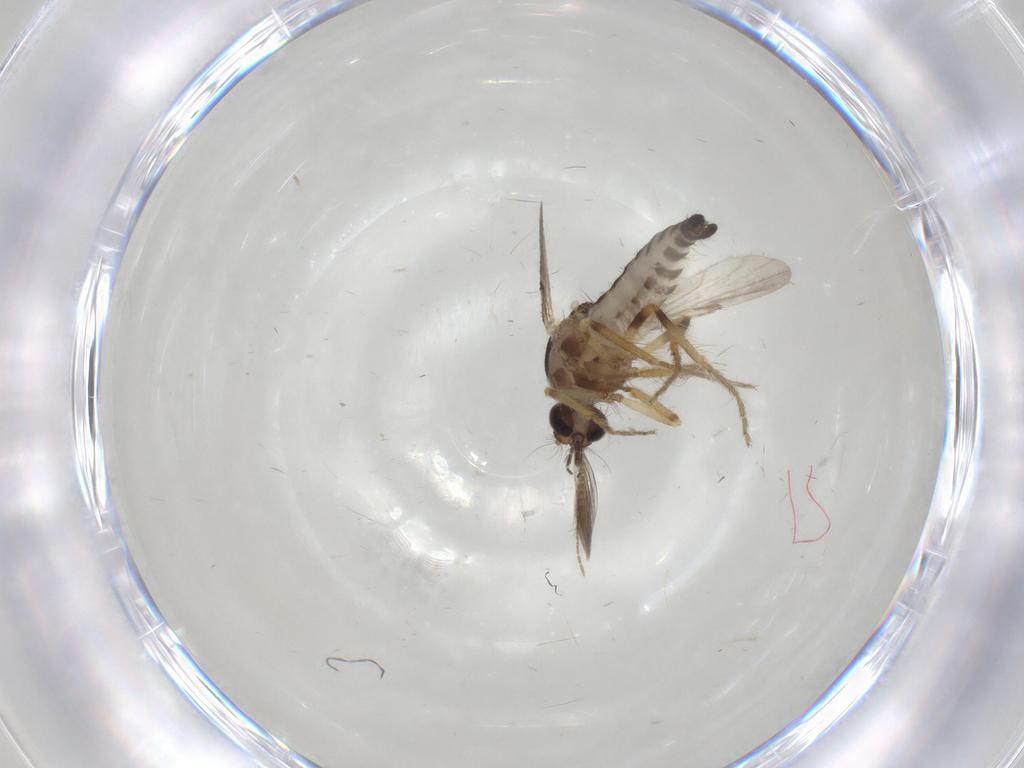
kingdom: Animalia
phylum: Arthropoda
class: Insecta
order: Diptera
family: Ceratopogonidae
